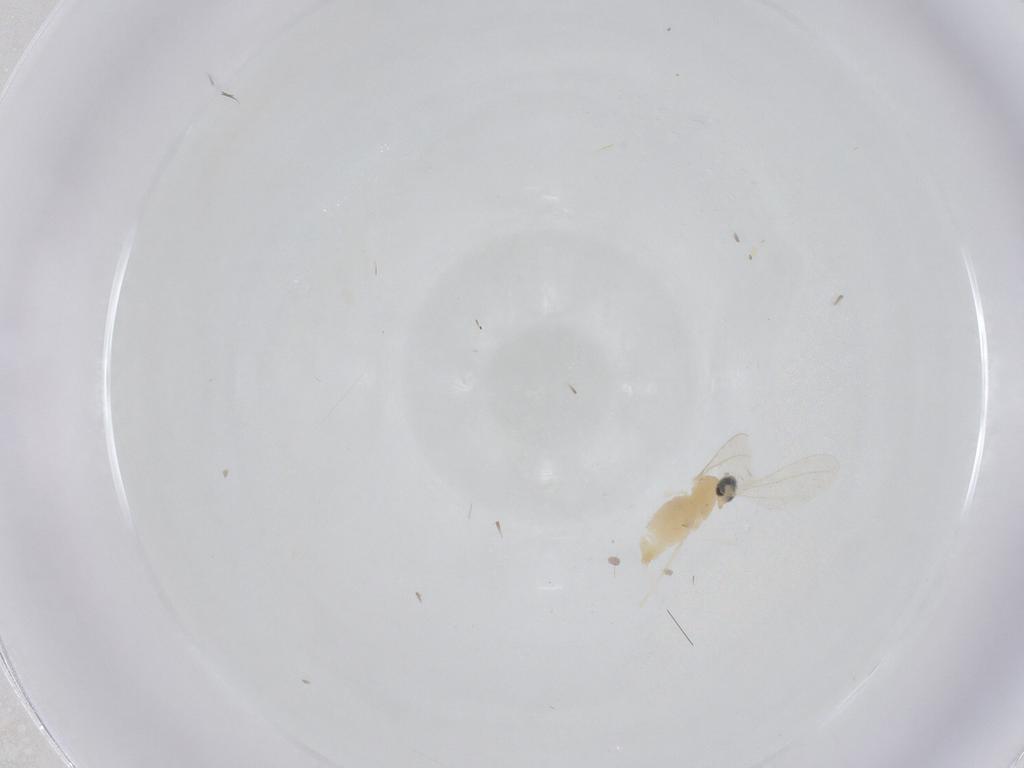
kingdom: Animalia
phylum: Arthropoda
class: Insecta
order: Diptera
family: Cecidomyiidae
